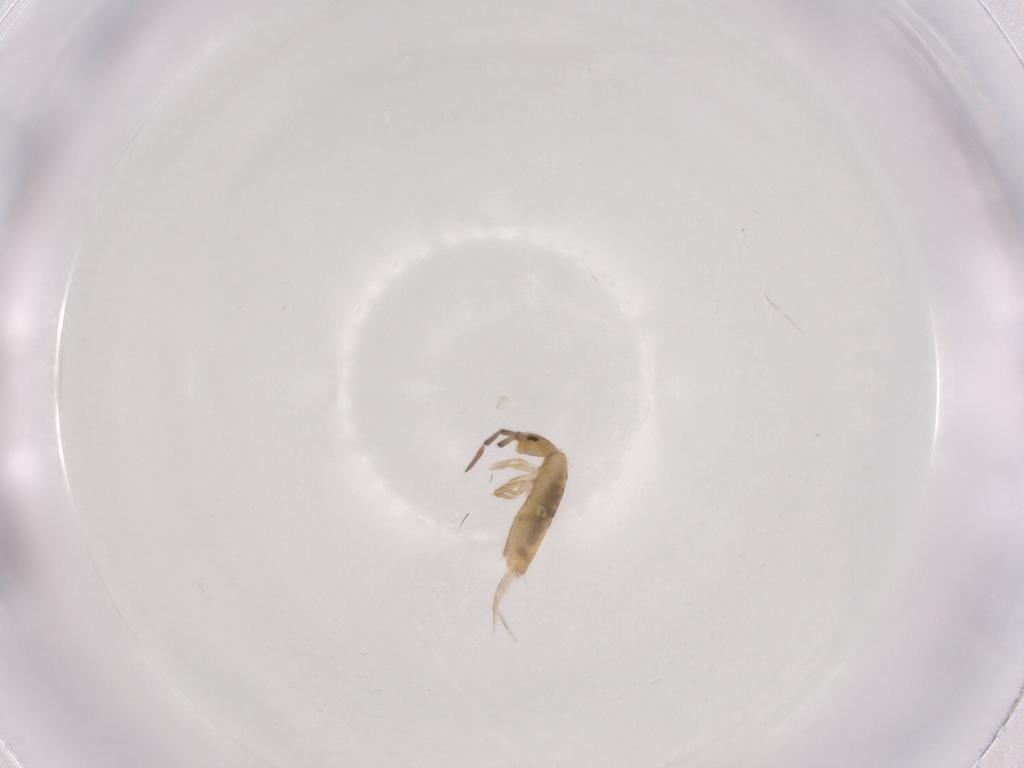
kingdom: Animalia
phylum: Arthropoda
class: Collembola
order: Entomobryomorpha
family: Entomobryidae
